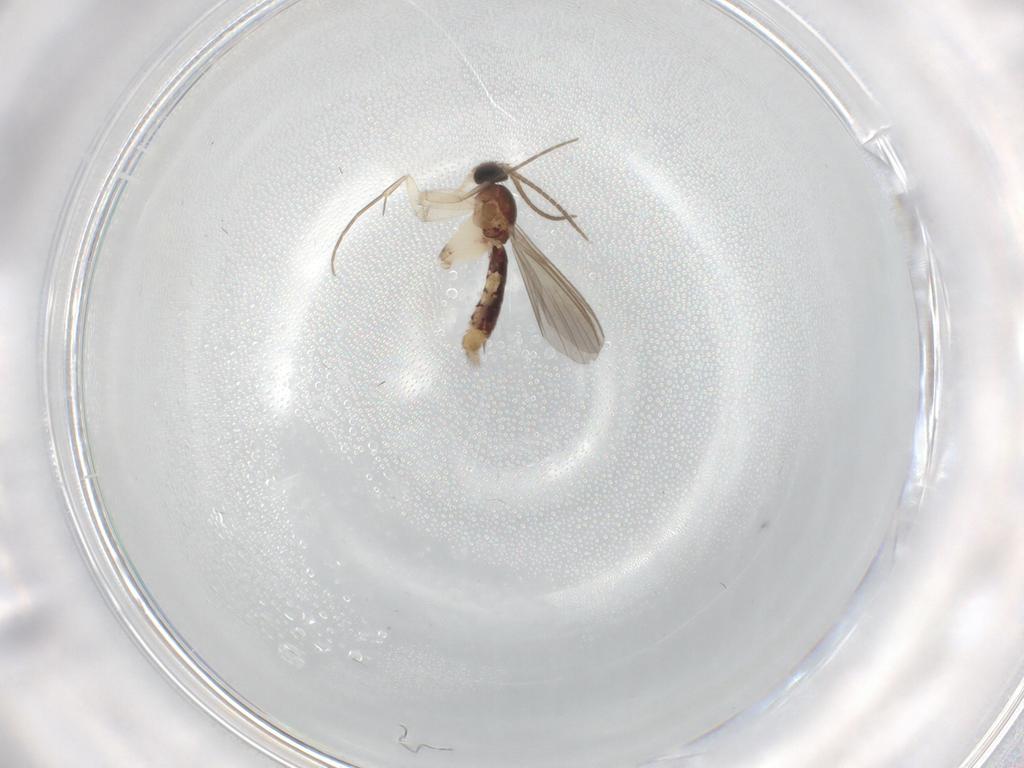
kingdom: Animalia
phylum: Arthropoda
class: Insecta
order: Diptera
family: Mycetophilidae
